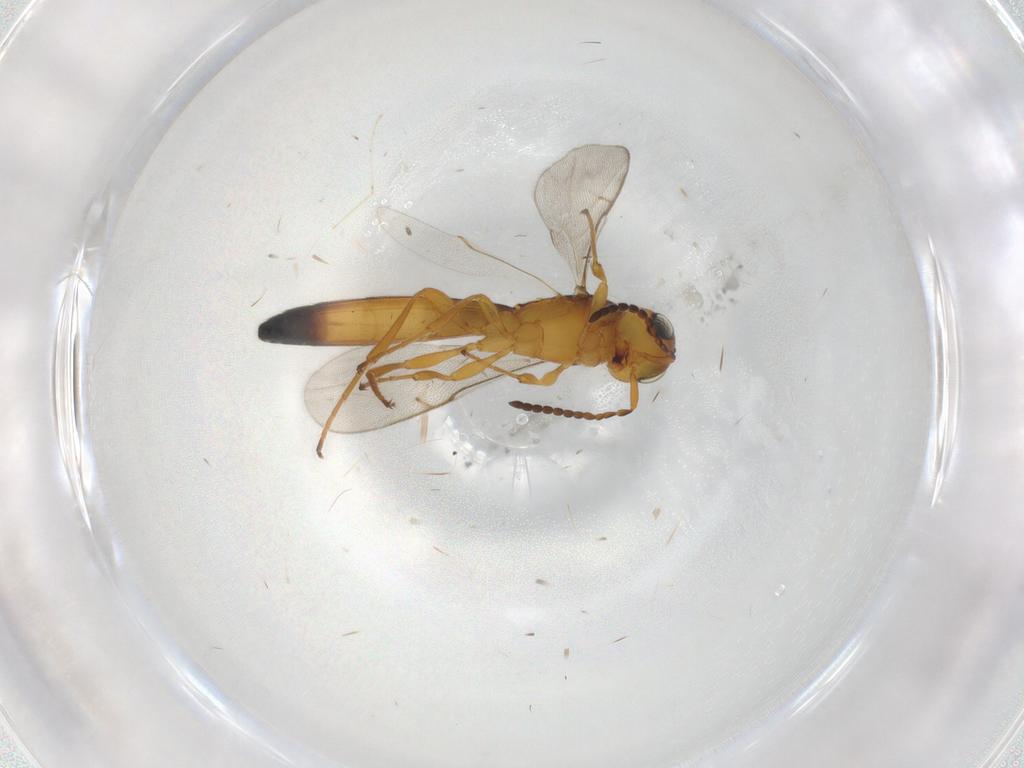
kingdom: Animalia
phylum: Arthropoda
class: Insecta
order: Hymenoptera
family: Scelionidae
